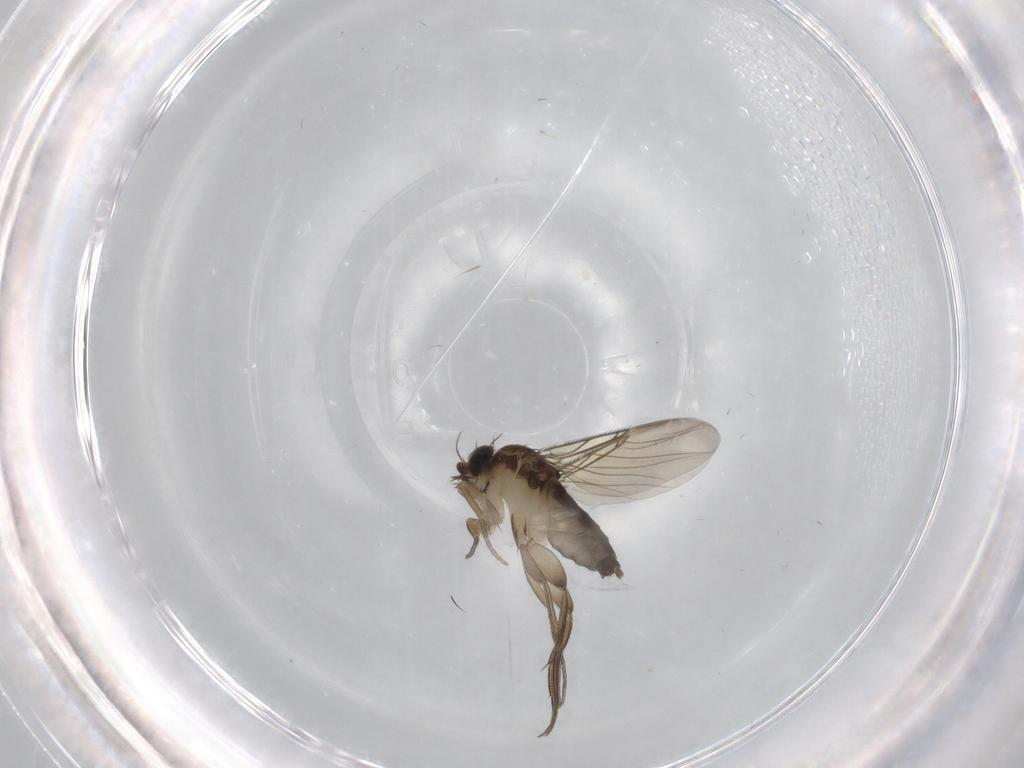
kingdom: Animalia
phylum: Arthropoda
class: Insecta
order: Diptera
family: Phoridae
